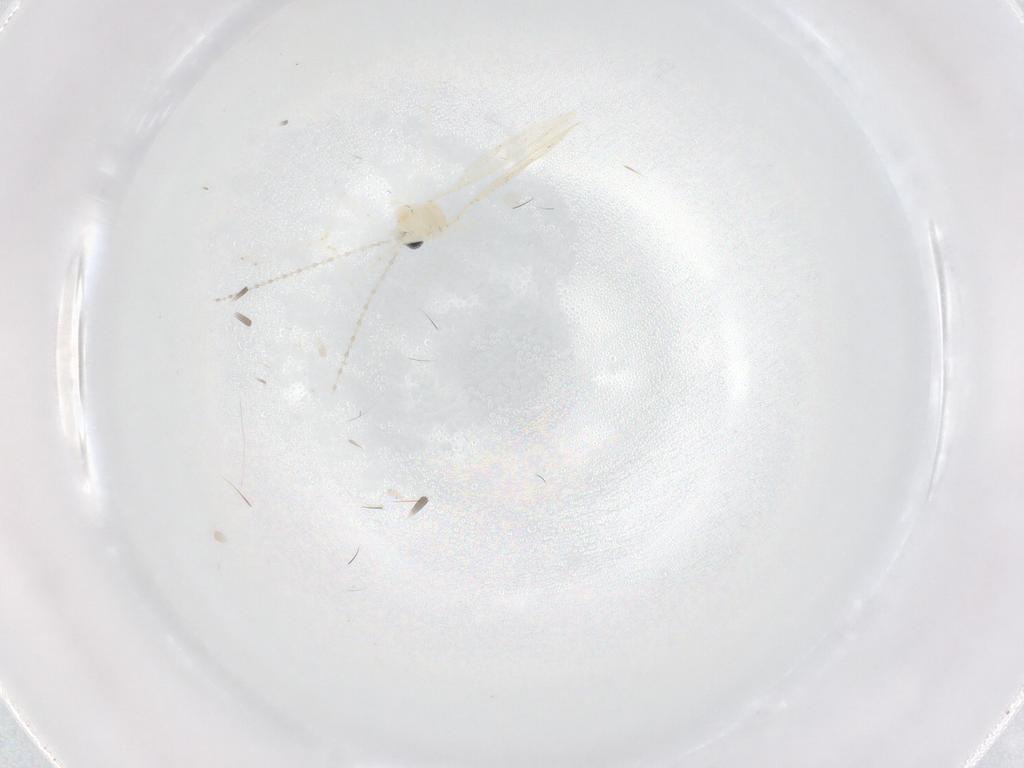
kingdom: Animalia
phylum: Arthropoda
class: Insecta
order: Diptera
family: Cecidomyiidae
